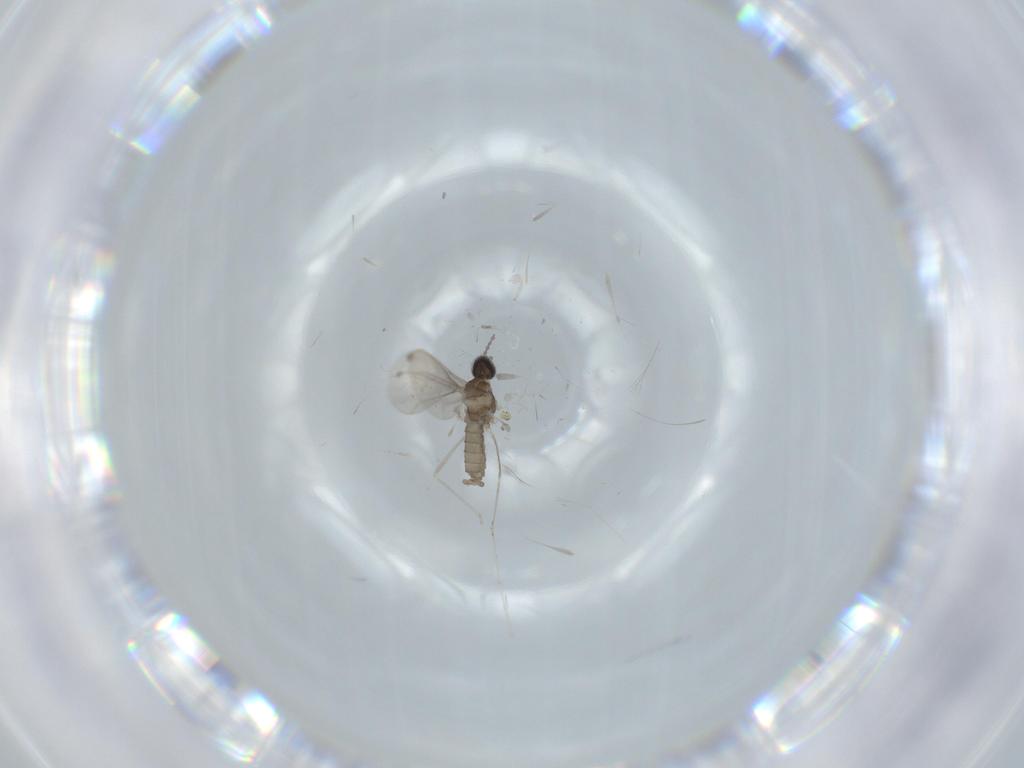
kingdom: Animalia
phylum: Arthropoda
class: Insecta
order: Diptera
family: Cecidomyiidae
